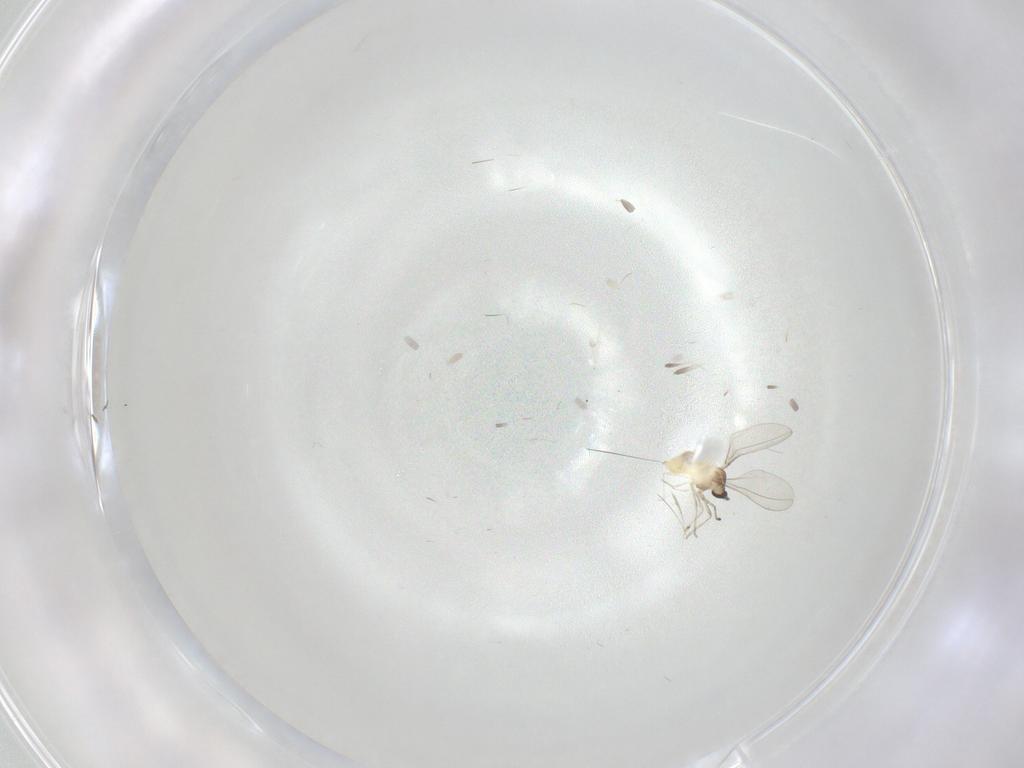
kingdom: Animalia
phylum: Arthropoda
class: Insecta
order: Diptera
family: Cecidomyiidae
